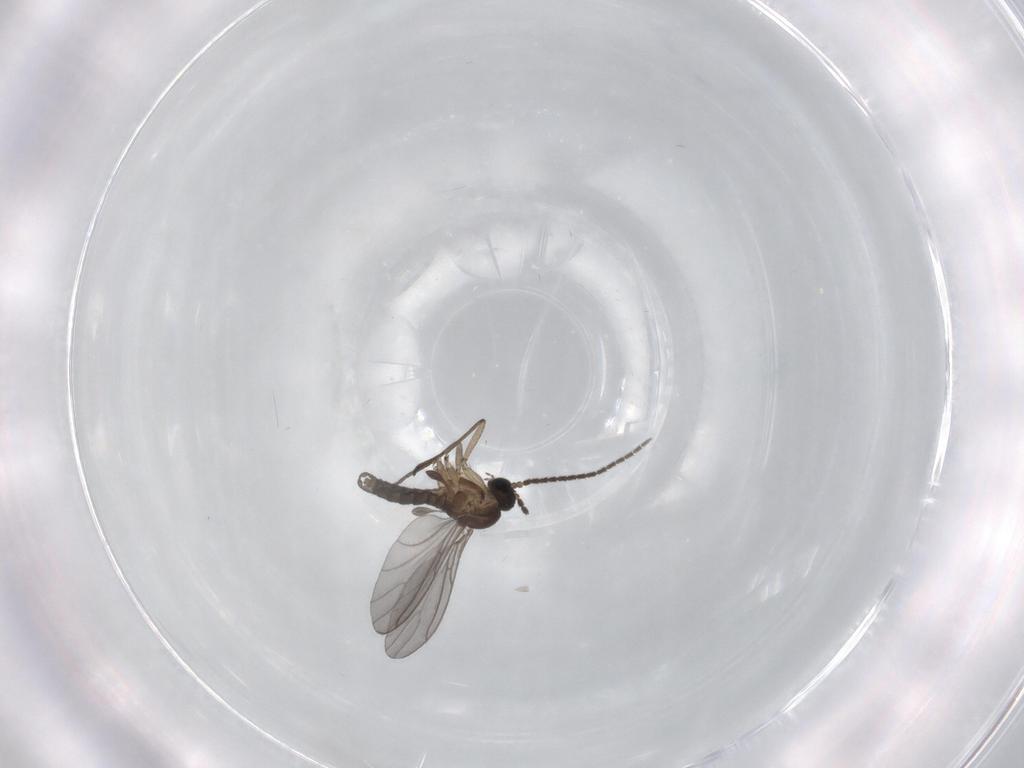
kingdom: Animalia
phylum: Arthropoda
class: Insecta
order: Diptera
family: Sciaridae
